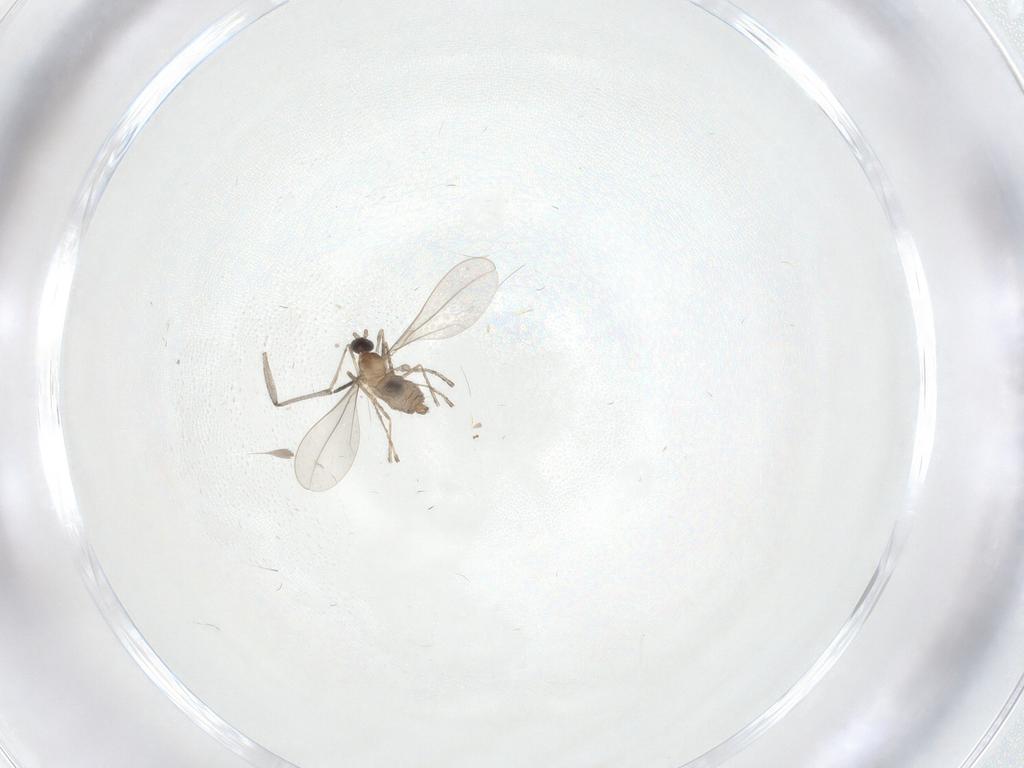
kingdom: Animalia
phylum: Arthropoda
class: Insecta
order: Diptera
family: Cecidomyiidae
